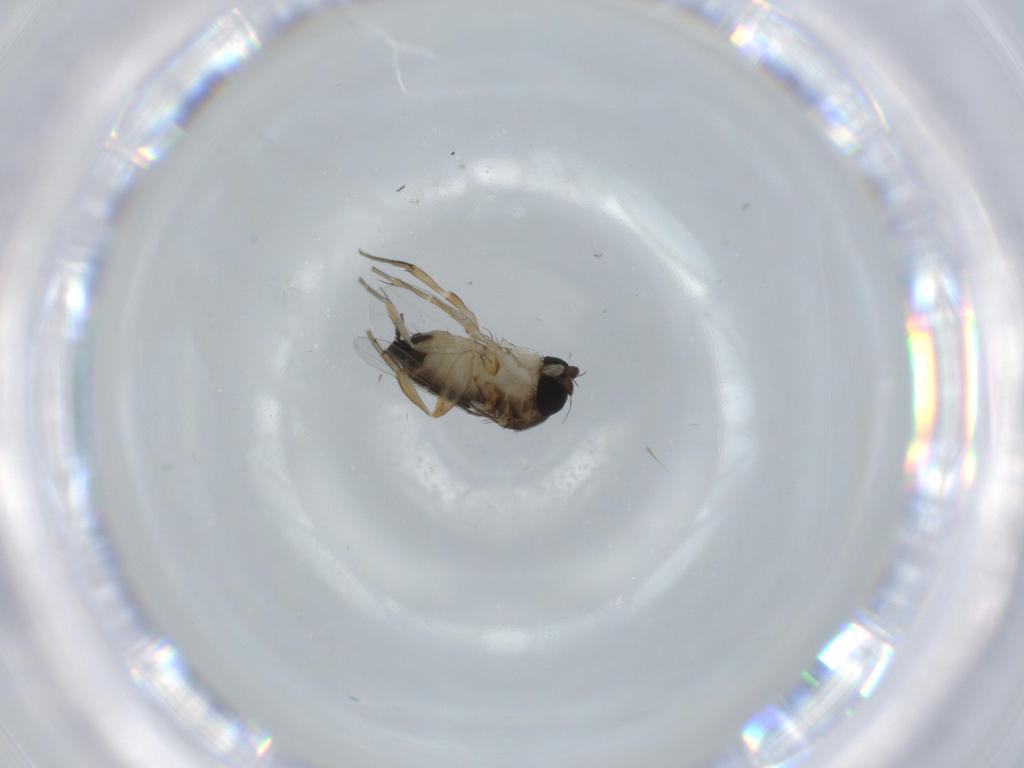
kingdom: Animalia
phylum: Arthropoda
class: Insecta
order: Diptera
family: Phoridae
